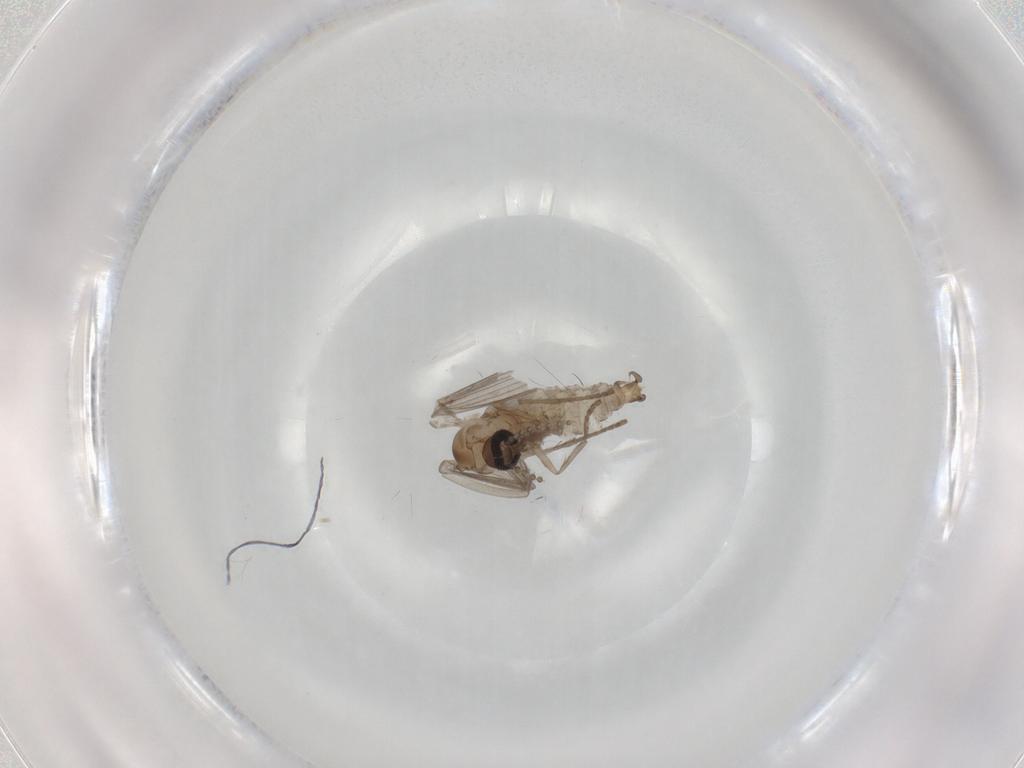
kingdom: Animalia
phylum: Arthropoda
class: Insecta
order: Diptera
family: Psychodidae
